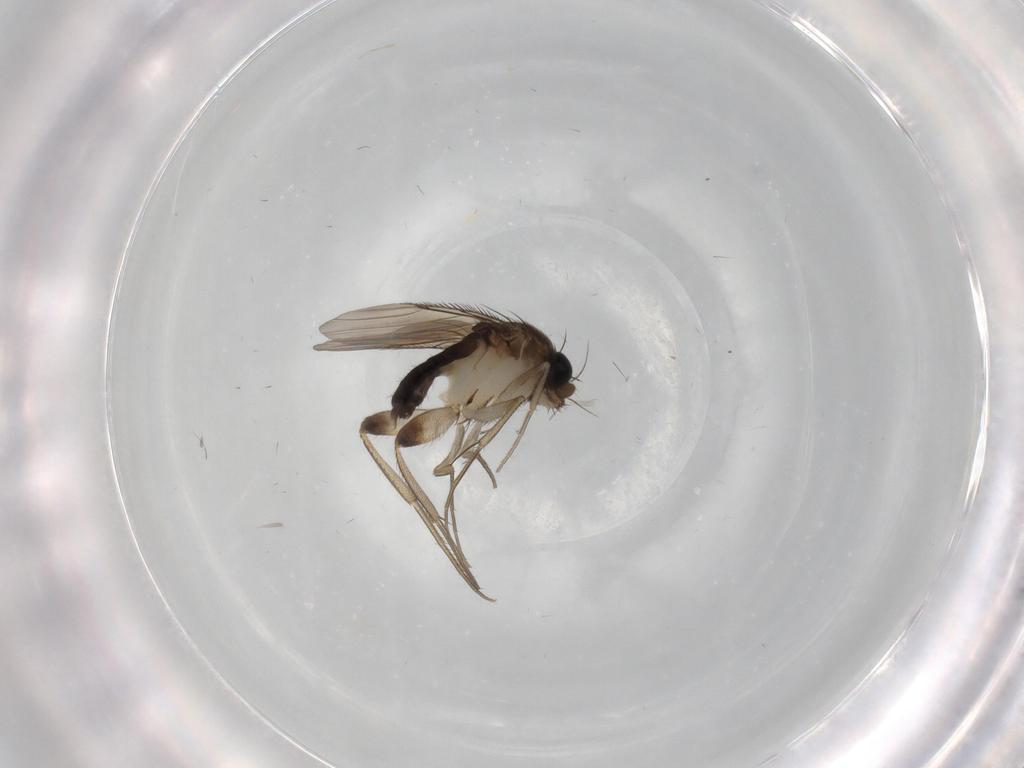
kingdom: Animalia
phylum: Arthropoda
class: Insecta
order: Diptera
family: Phoridae
